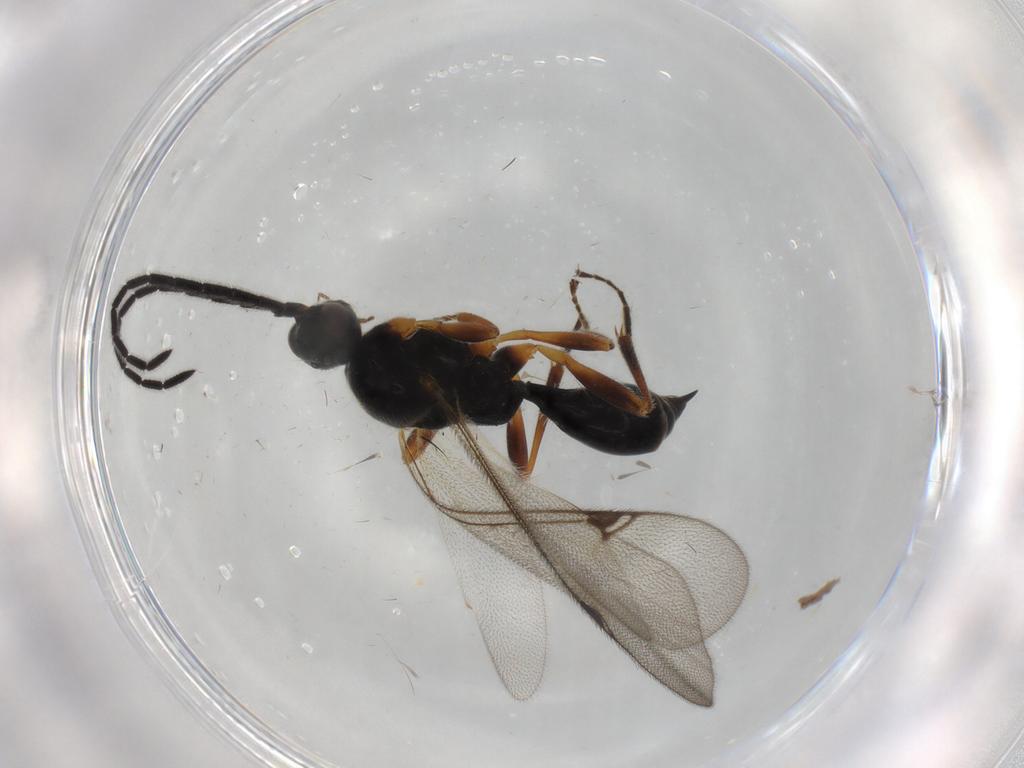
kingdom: Animalia
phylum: Arthropoda
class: Insecta
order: Hymenoptera
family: Proctotrupidae
